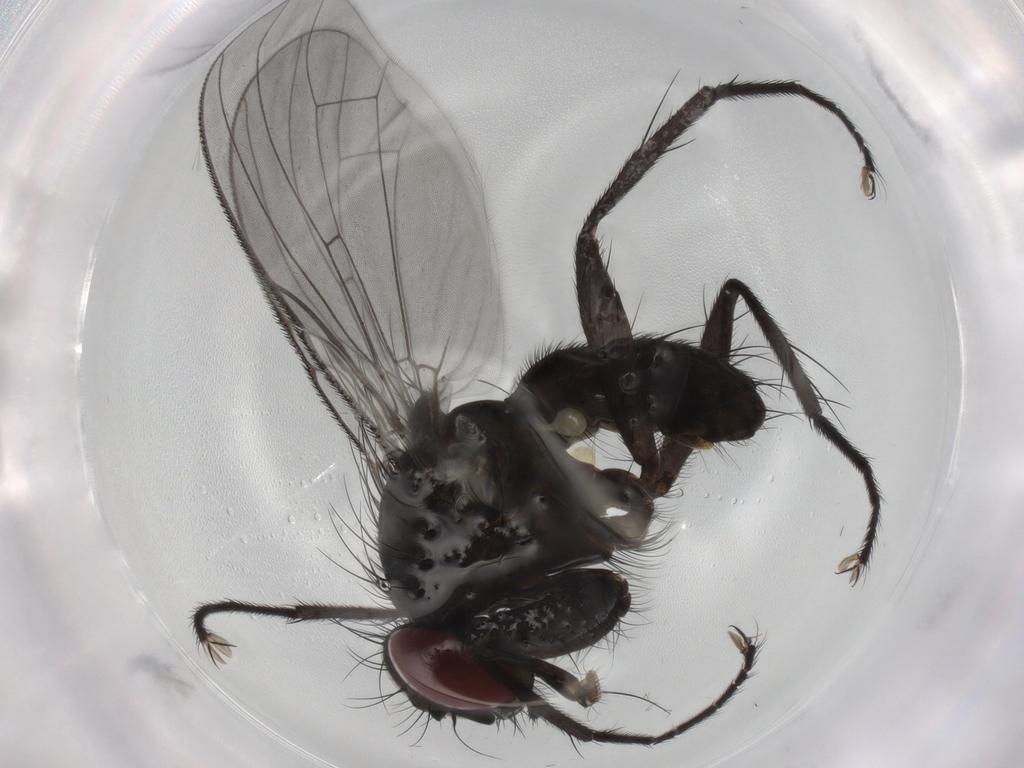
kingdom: Animalia
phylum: Arthropoda
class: Insecta
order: Diptera
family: Muscidae
